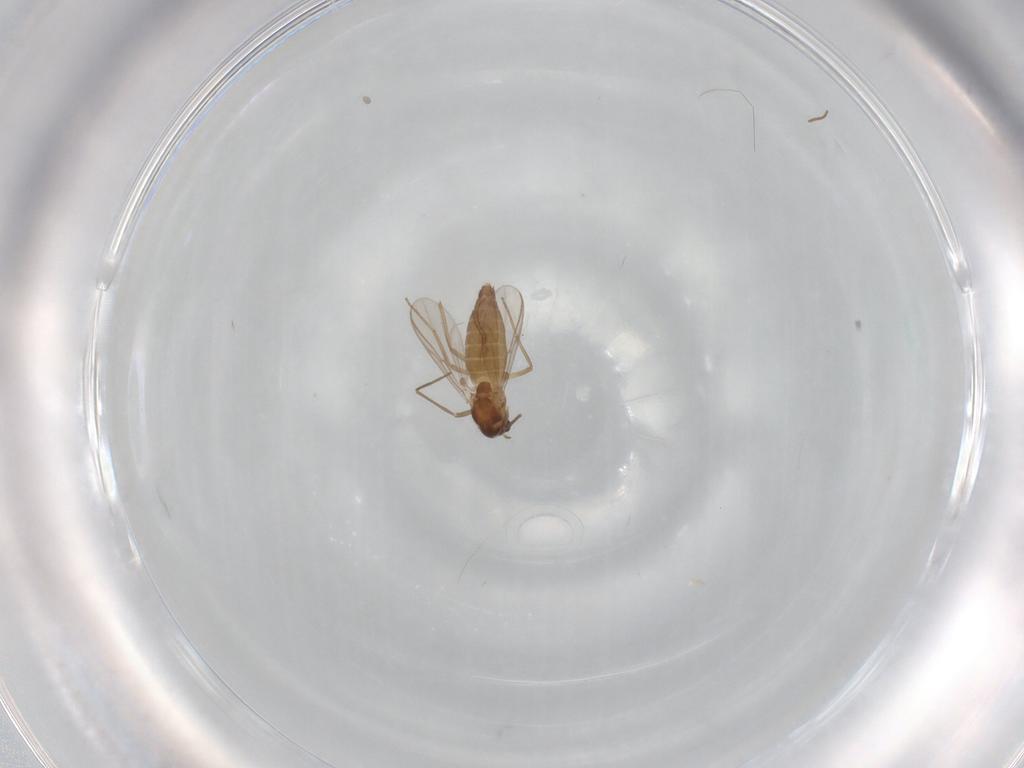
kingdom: Animalia
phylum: Arthropoda
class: Insecta
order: Diptera
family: Chironomidae
